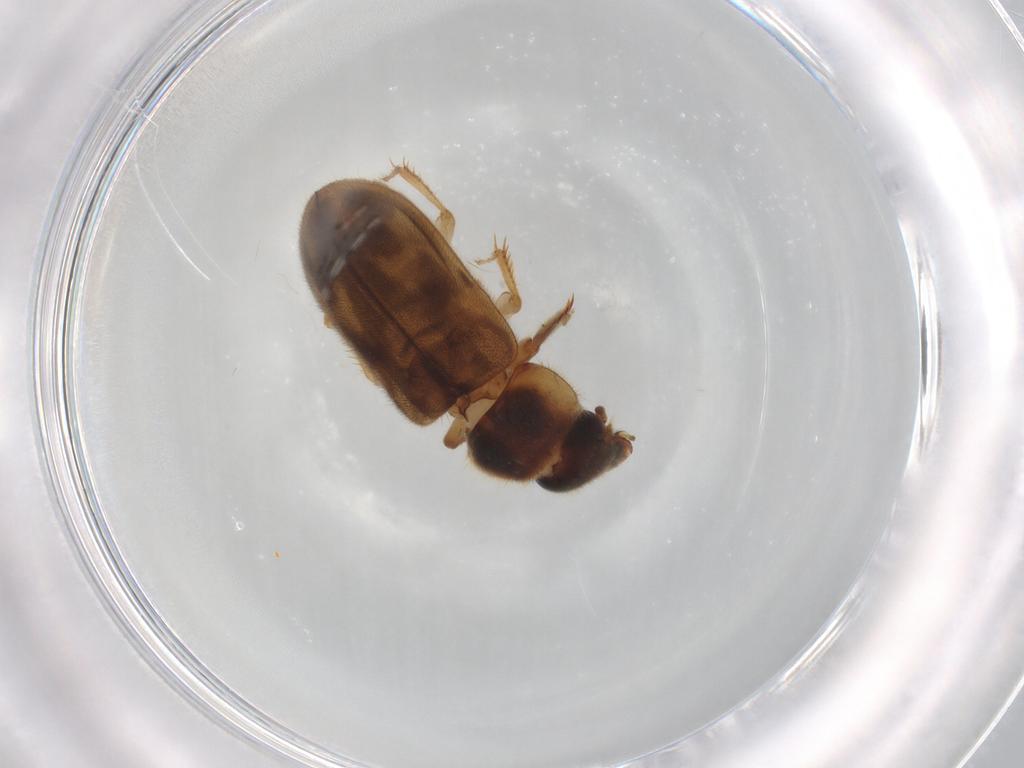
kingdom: Animalia
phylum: Arthropoda
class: Insecta
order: Coleoptera
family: Heteroceridae
